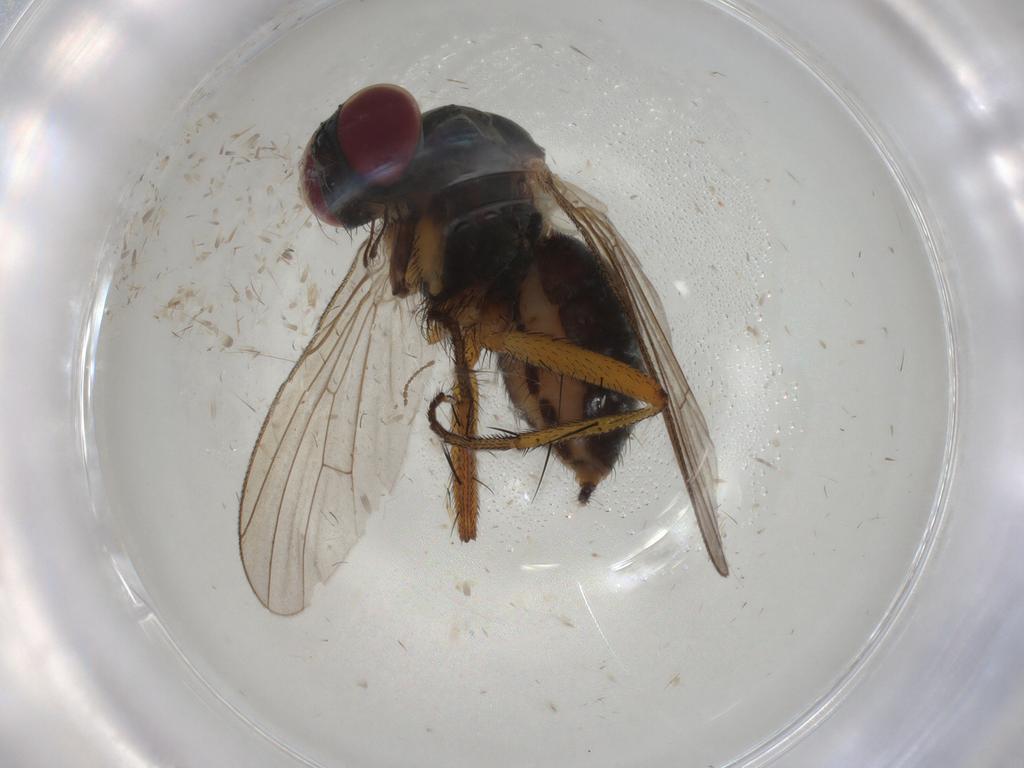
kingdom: Animalia
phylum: Arthropoda
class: Insecta
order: Diptera
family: Muscidae
